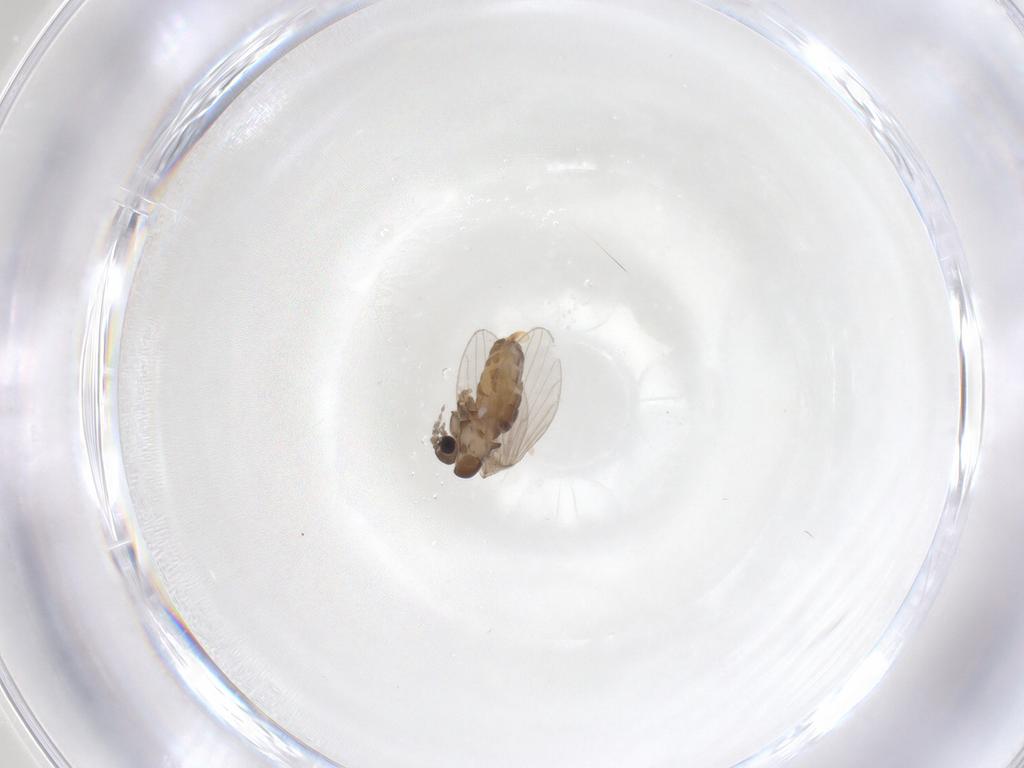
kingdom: Animalia
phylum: Arthropoda
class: Insecta
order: Diptera
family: Psychodidae
